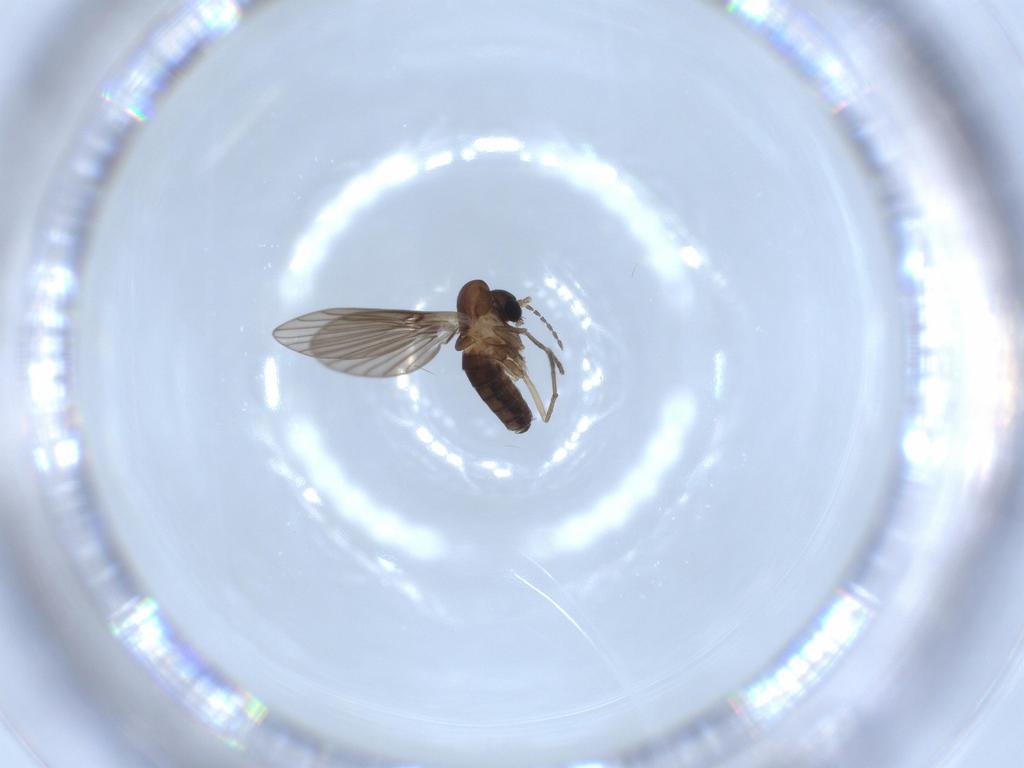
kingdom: Animalia
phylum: Arthropoda
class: Insecta
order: Diptera
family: Psychodidae
